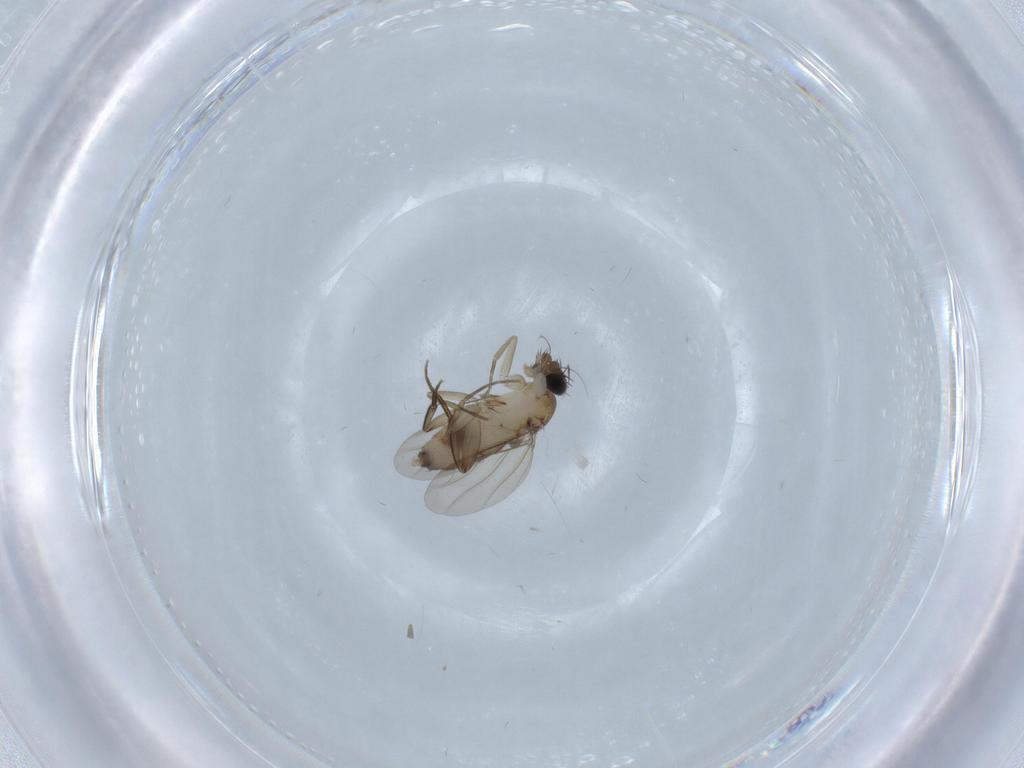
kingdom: Animalia
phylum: Arthropoda
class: Insecta
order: Diptera
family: Phoridae
